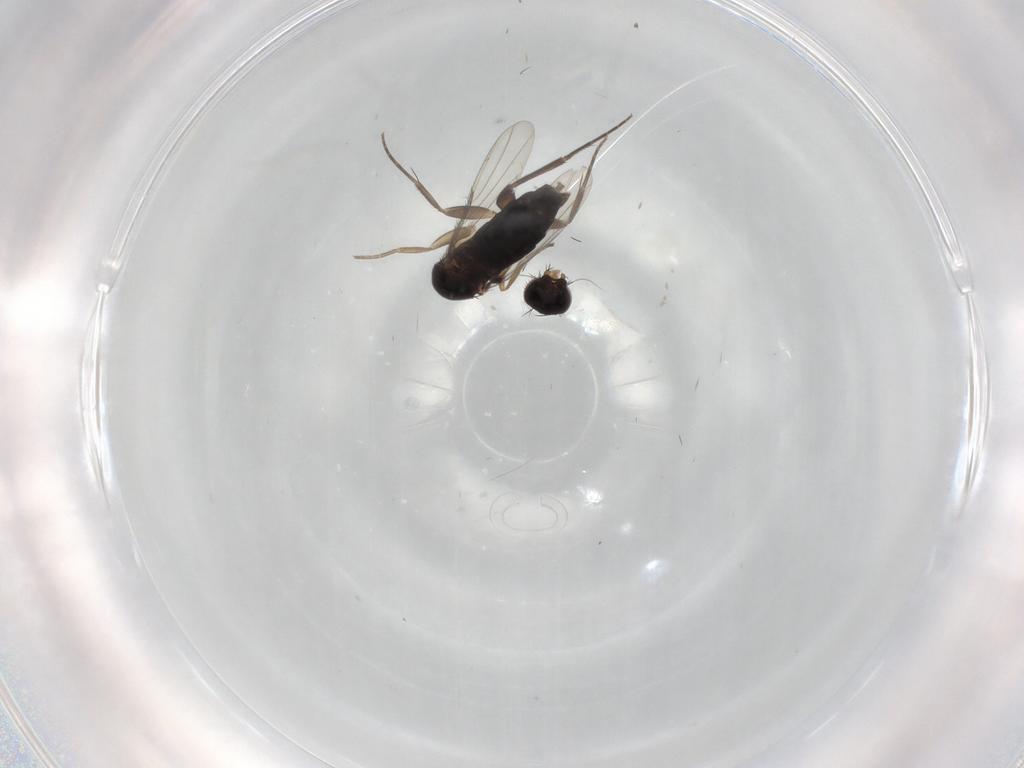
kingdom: Animalia
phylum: Arthropoda
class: Insecta
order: Diptera
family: Phoridae
